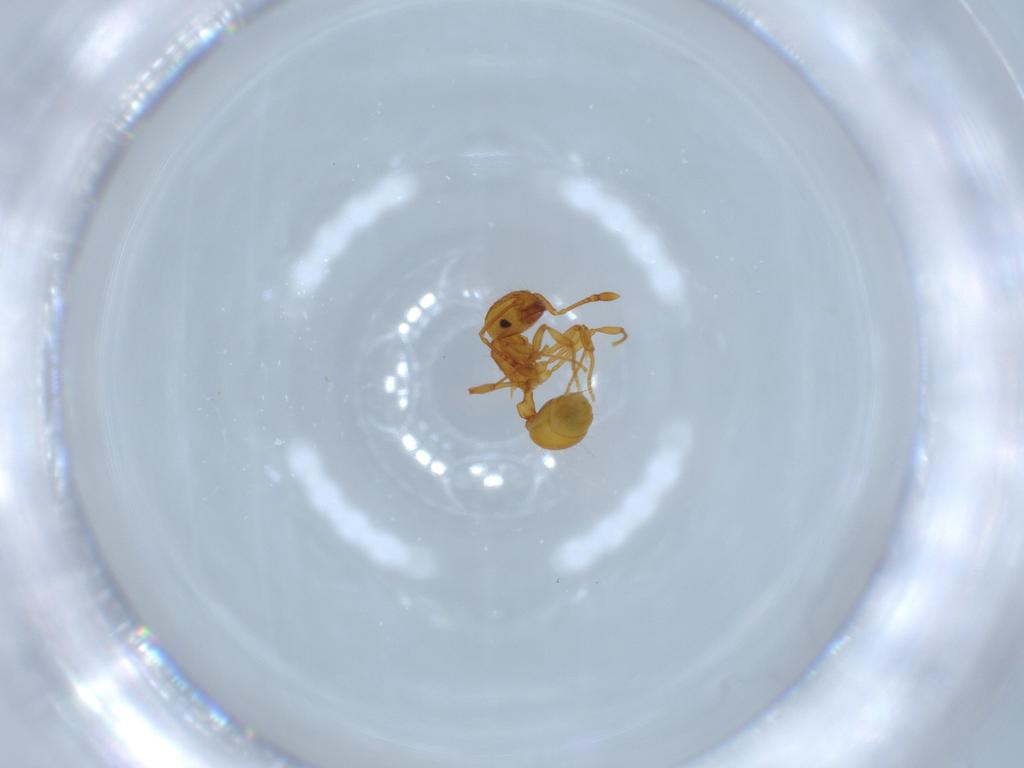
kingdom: Animalia
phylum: Arthropoda
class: Insecta
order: Hymenoptera
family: Formicidae
